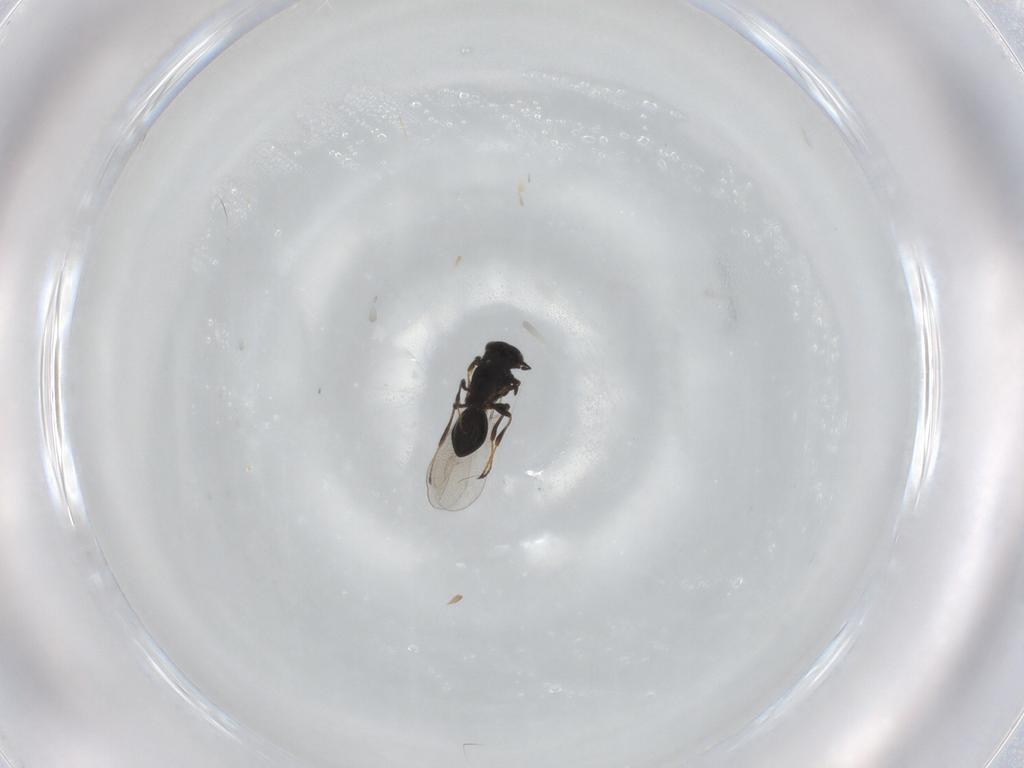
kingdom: Animalia
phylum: Arthropoda
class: Insecta
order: Hymenoptera
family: Platygastridae
